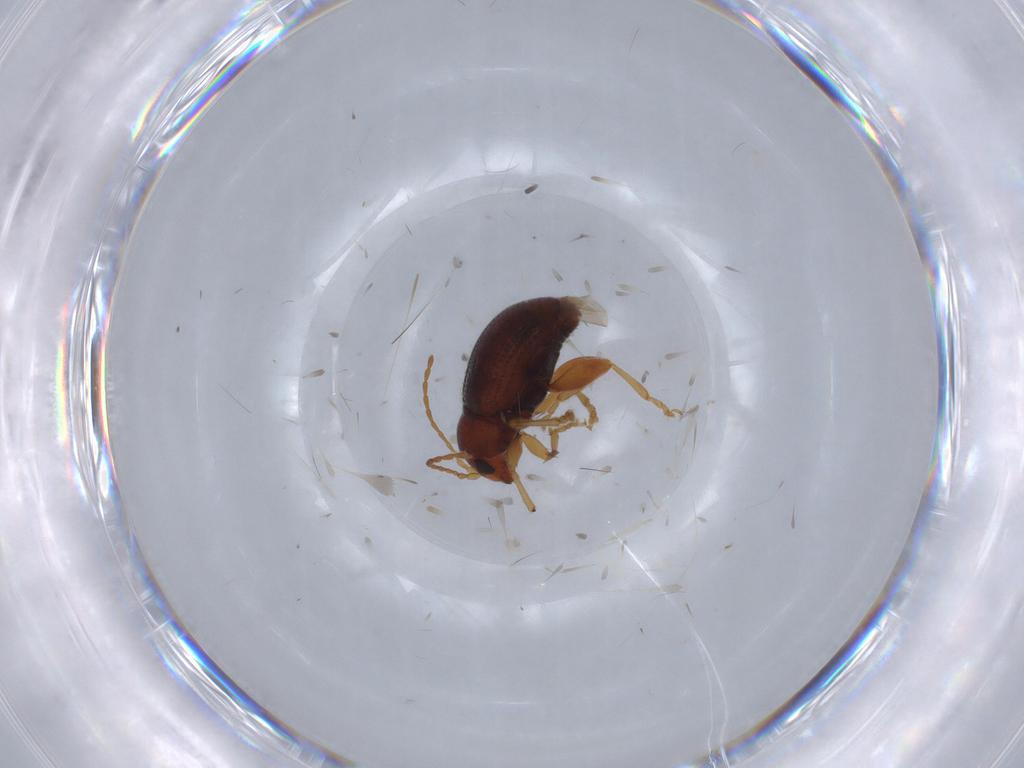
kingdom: Animalia
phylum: Arthropoda
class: Insecta
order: Coleoptera
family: Chrysomelidae
